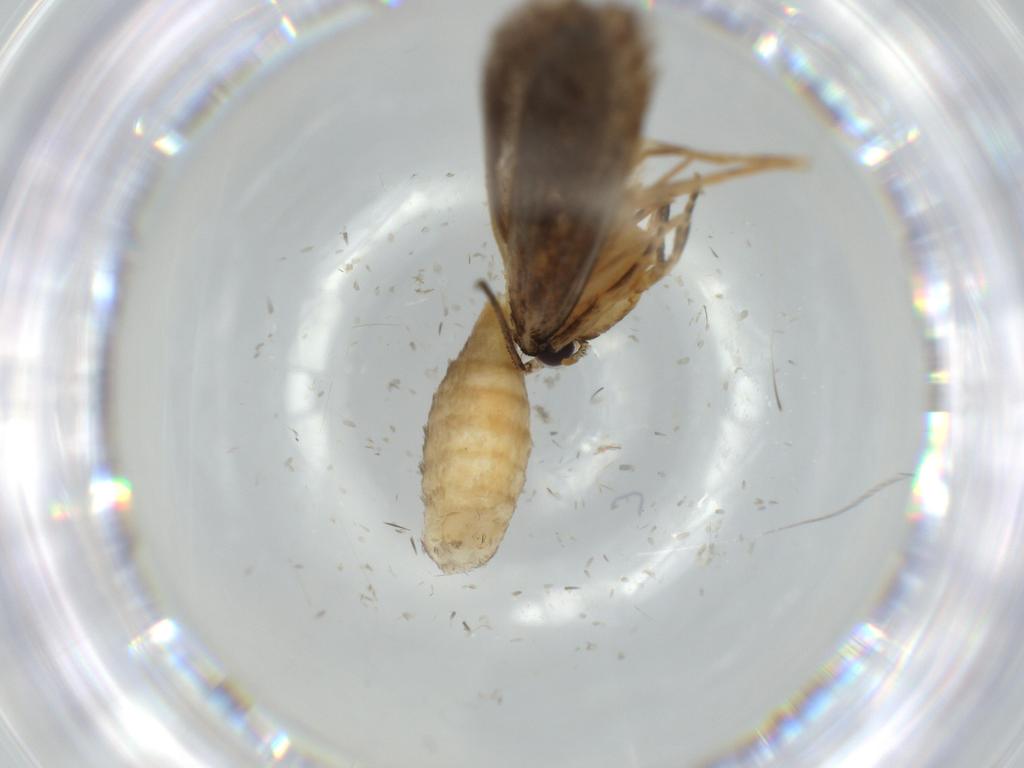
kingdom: Animalia
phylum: Arthropoda
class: Insecta
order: Lepidoptera
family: Tineidae
